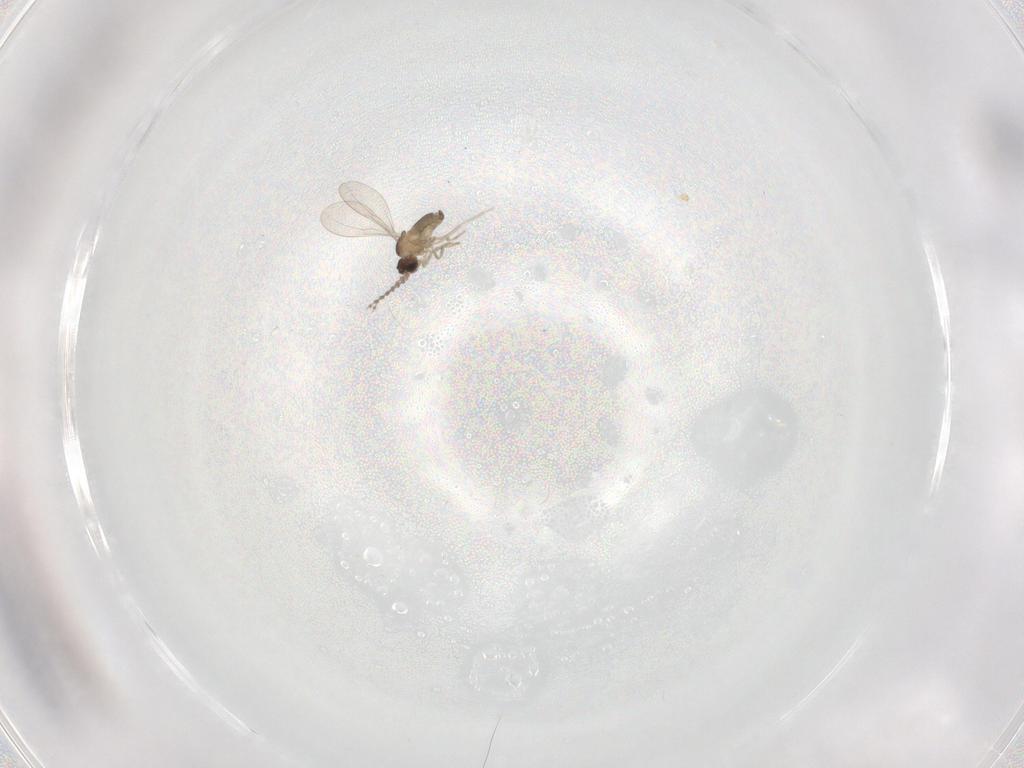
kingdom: Animalia
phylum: Arthropoda
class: Insecta
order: Diptera
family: Cecidomyiidae
